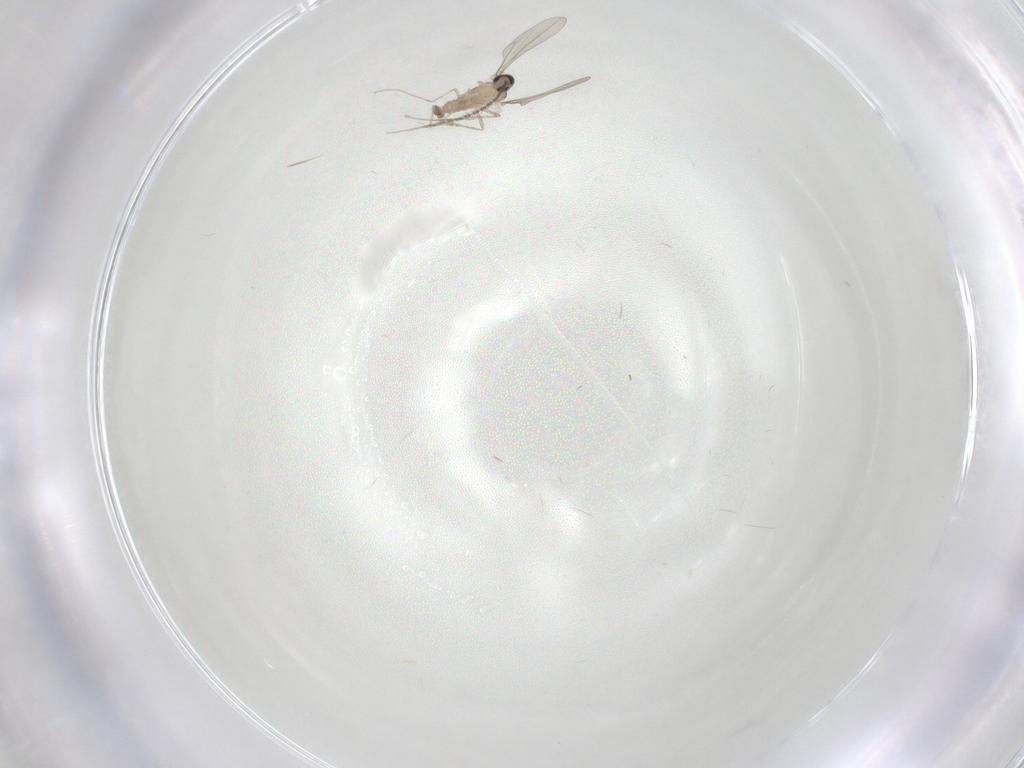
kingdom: Animalia
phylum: Arthropoda
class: Insecta
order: Diptera
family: Cecidomyiidae
